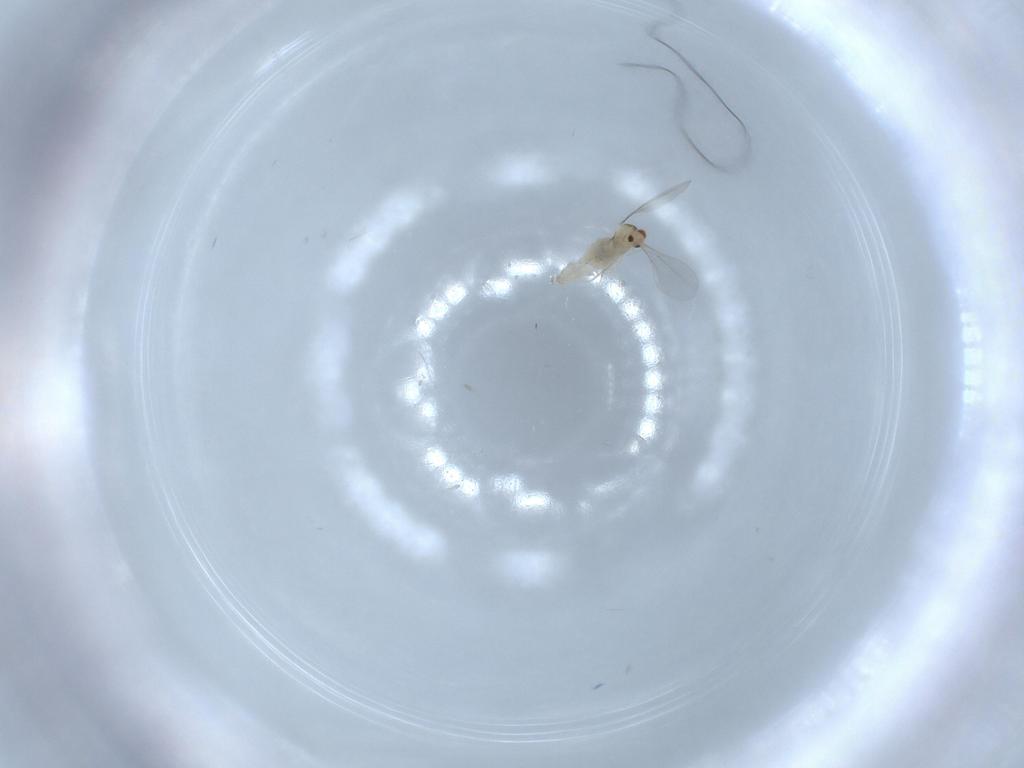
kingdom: Animalia
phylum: Arthropoda
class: Insecta
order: Diptera
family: Cecidomyiidae
